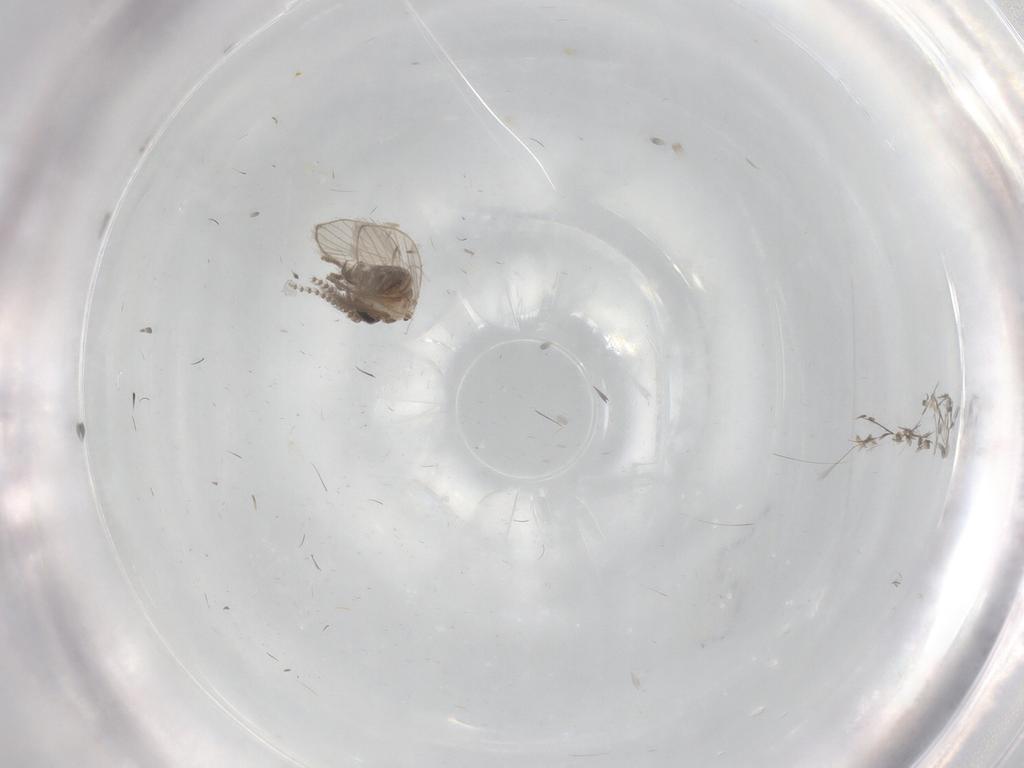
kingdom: Animalia
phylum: Arthropoda
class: Insecta
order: Diptera
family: Psychodidae
